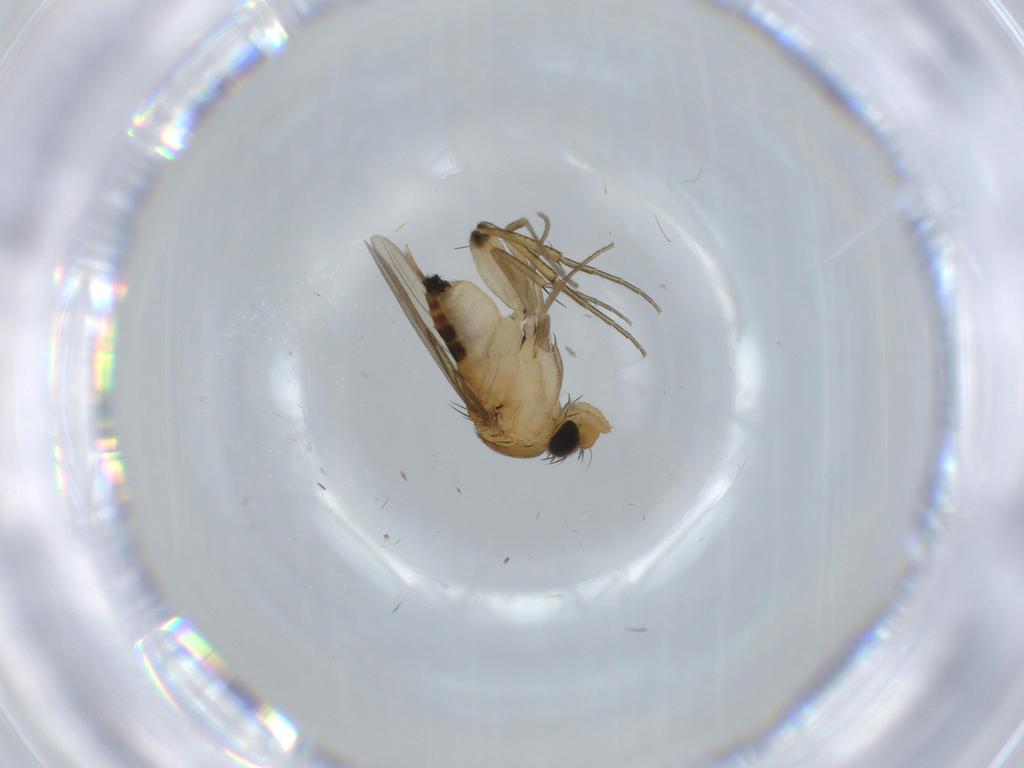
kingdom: Animalia
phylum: Arthropoda
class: Insecta
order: Diptera
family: Phoridae
